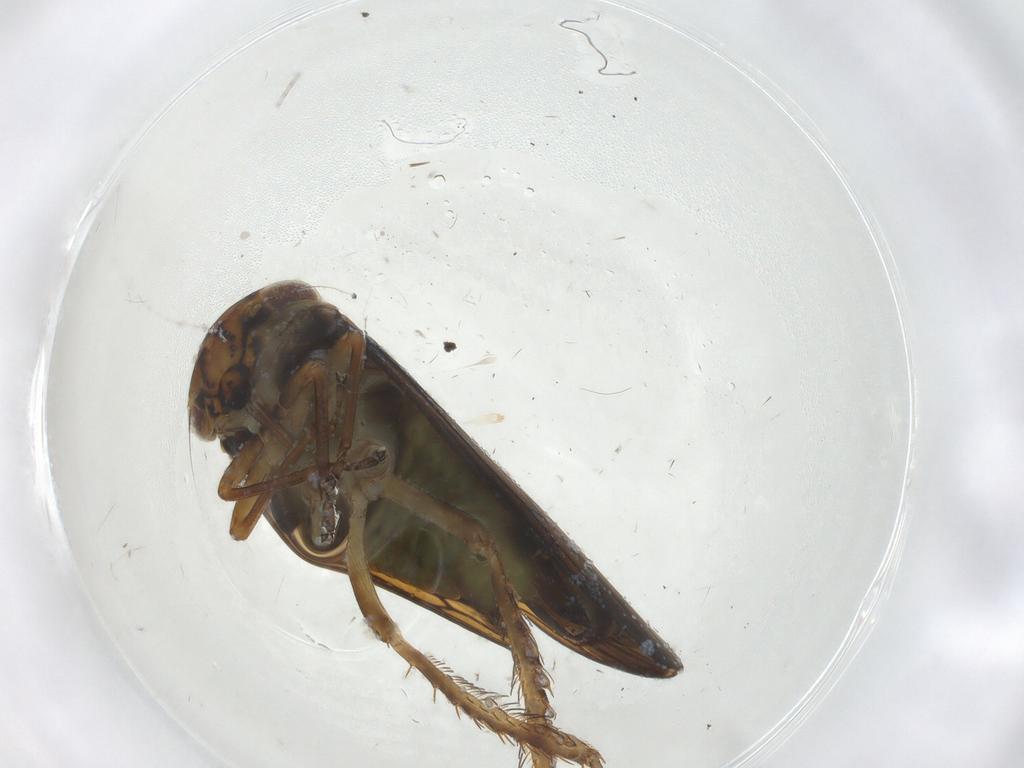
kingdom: Animalia
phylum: Arthropoda
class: Insecta
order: Hemiptera
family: Cicadellidae
